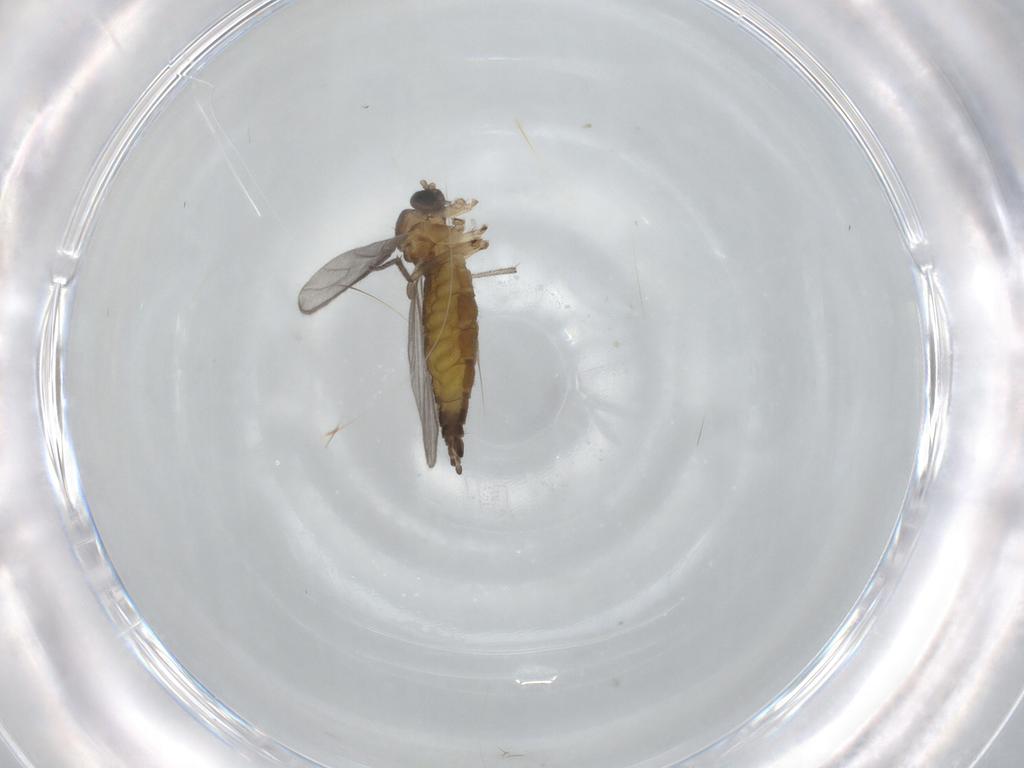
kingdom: Animalia
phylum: Arthropoda
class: Insecta
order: Diptera
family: Sciaridae
